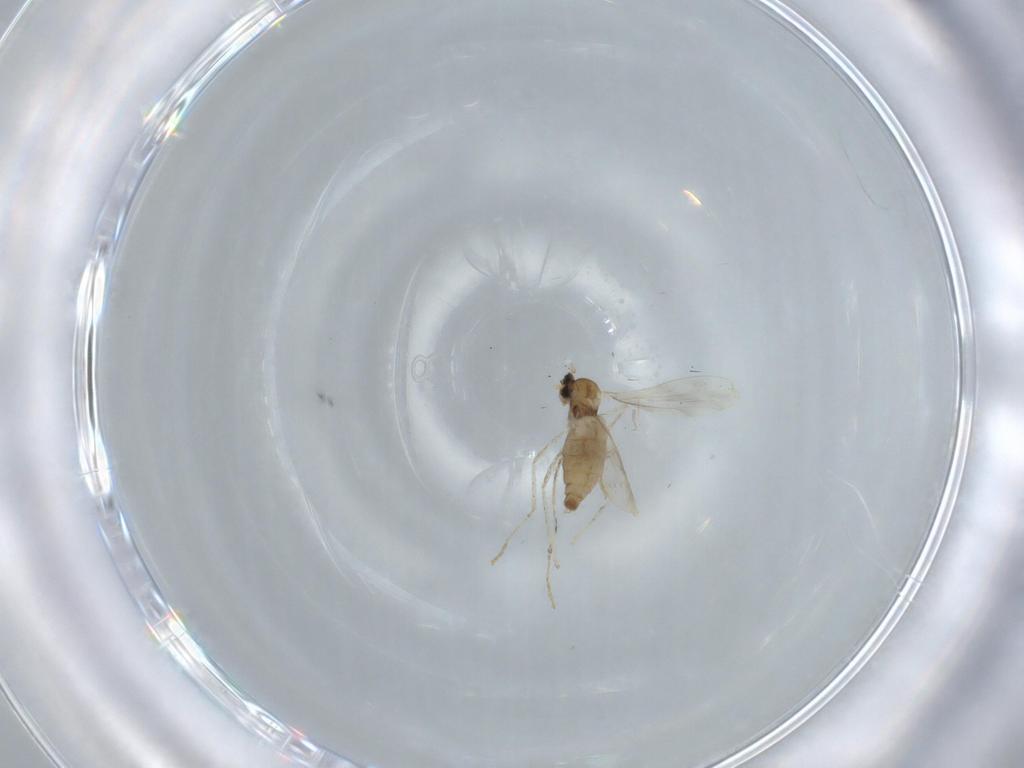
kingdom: Animalia
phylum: Arthropoda
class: Insecta
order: Diptera
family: Cecidomyiidae
